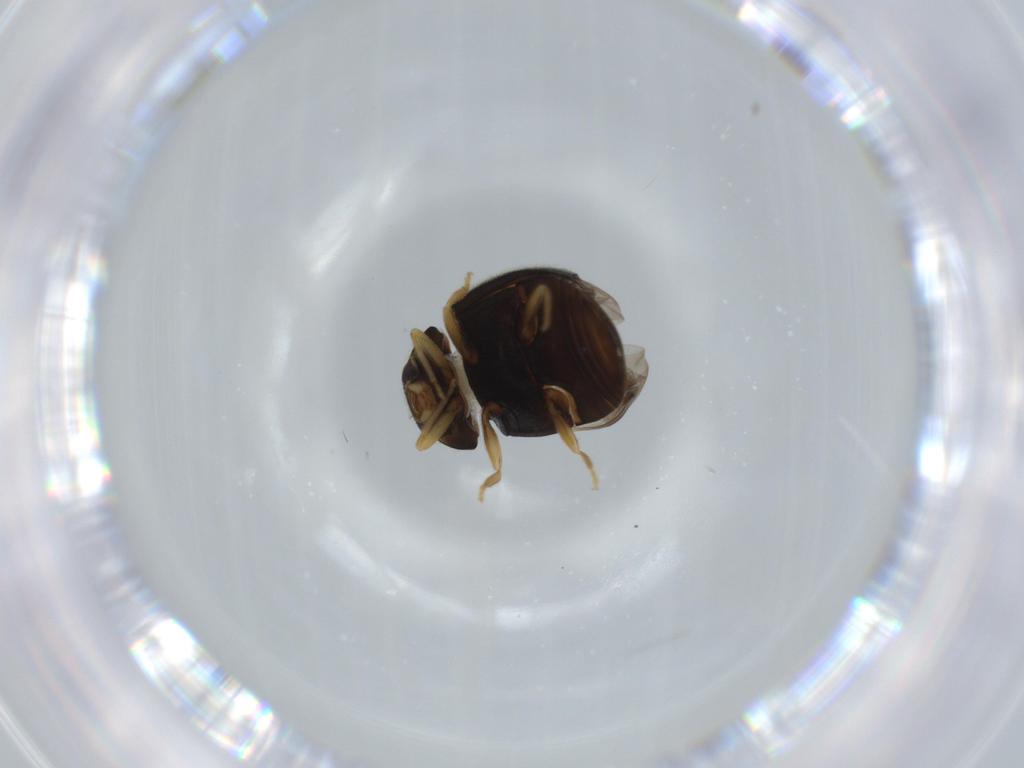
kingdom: Animalia
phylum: Arthropoda
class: Insecta
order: Coleoptera
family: Coccinellidae
